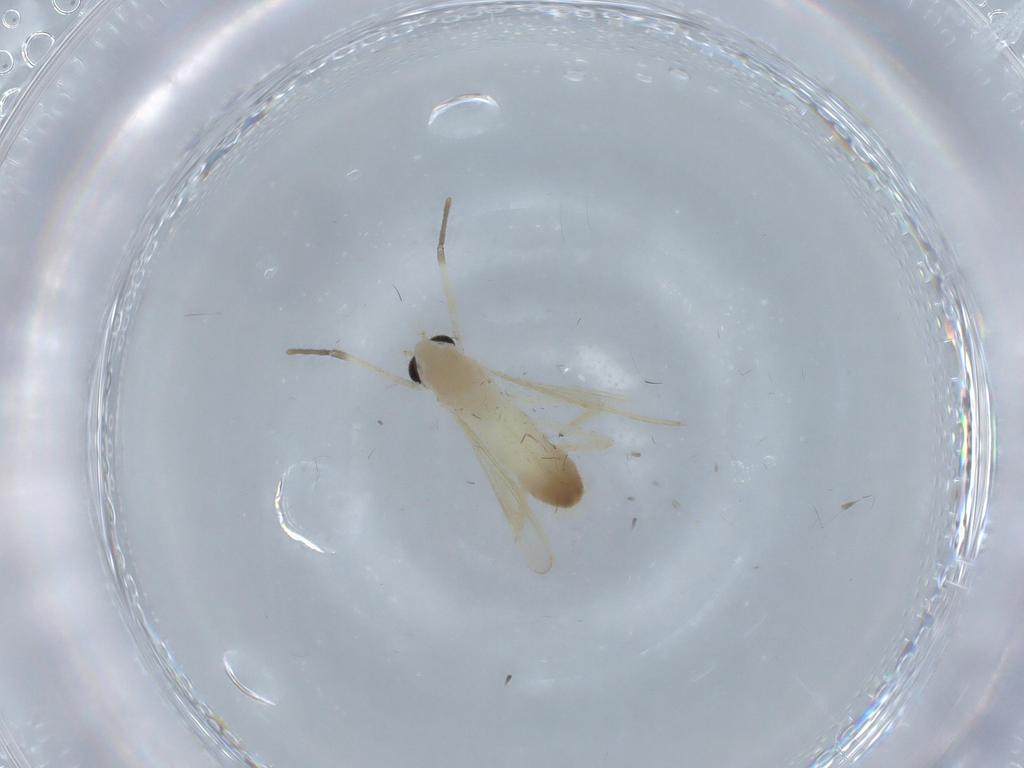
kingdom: Animalia
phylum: Arthropoda
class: Insecta
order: Diptera
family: Chironomidae
